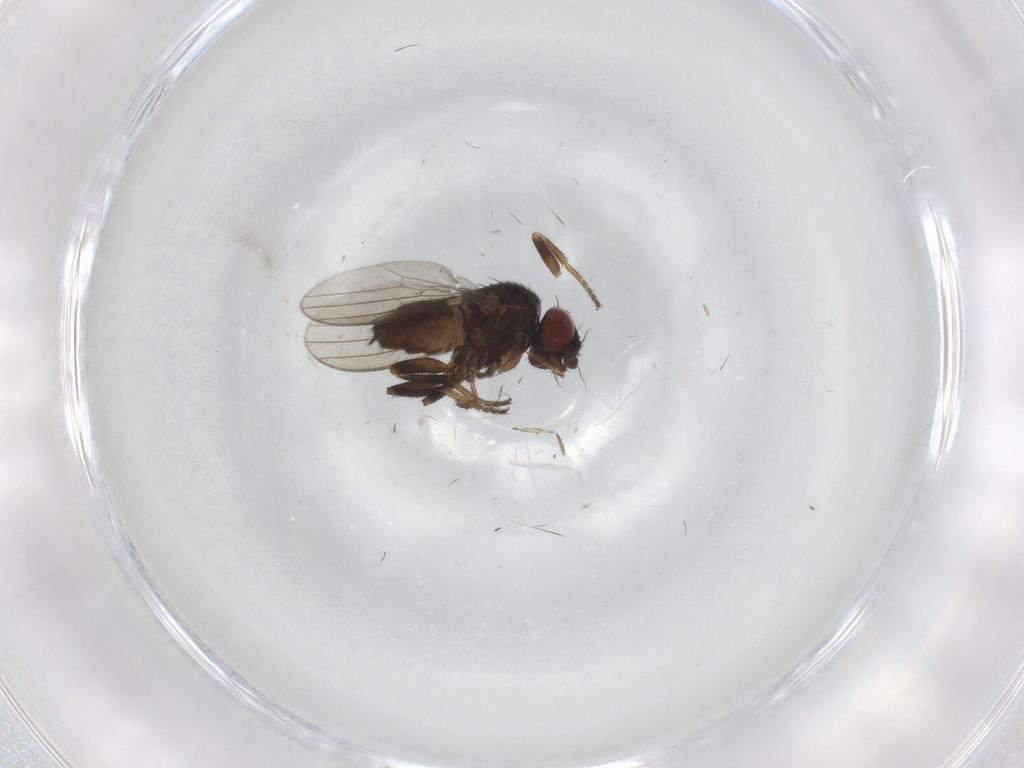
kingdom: Animalia
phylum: Arthropoda
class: Insecta
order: Diptera
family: Milichiidae
